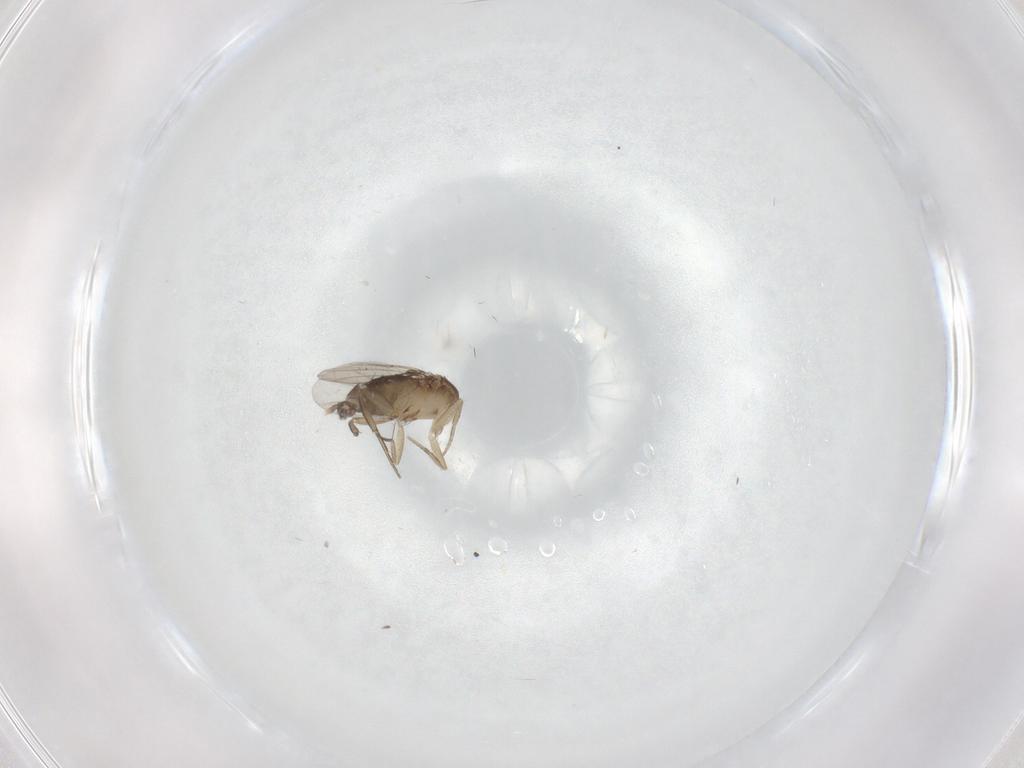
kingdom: Animalia
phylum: Arthropoda
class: Insecta
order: Diptera
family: Phoridae
